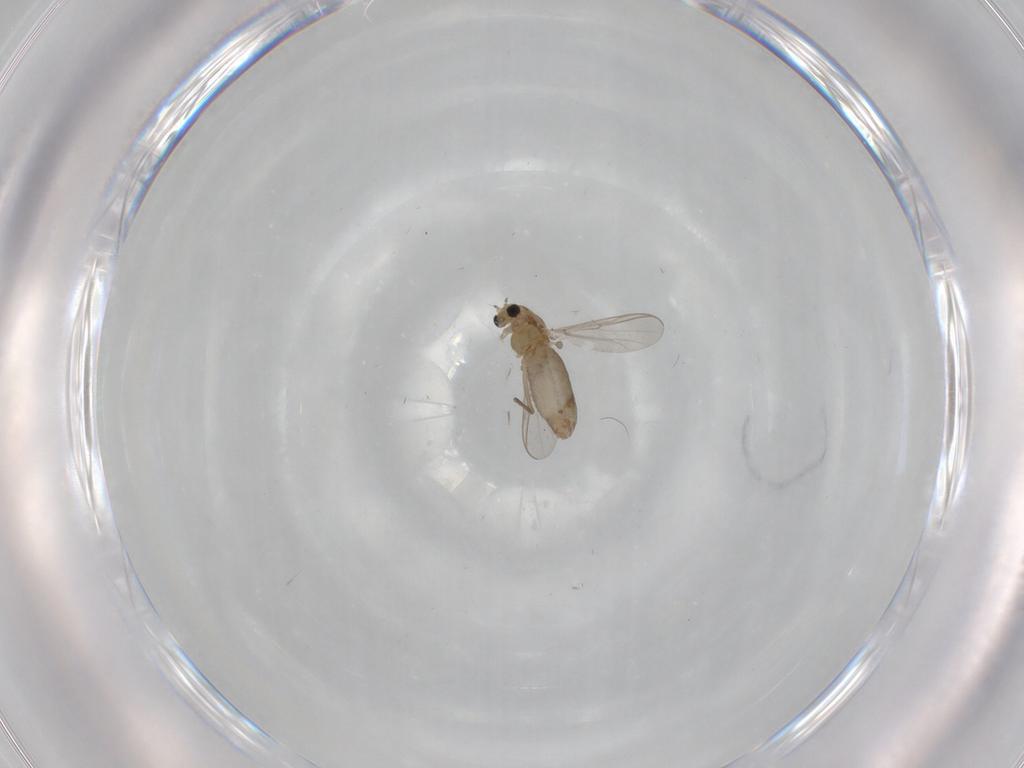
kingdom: Animalia
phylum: Arthropoda
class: Insecta
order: Diptera
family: Chironomidae
